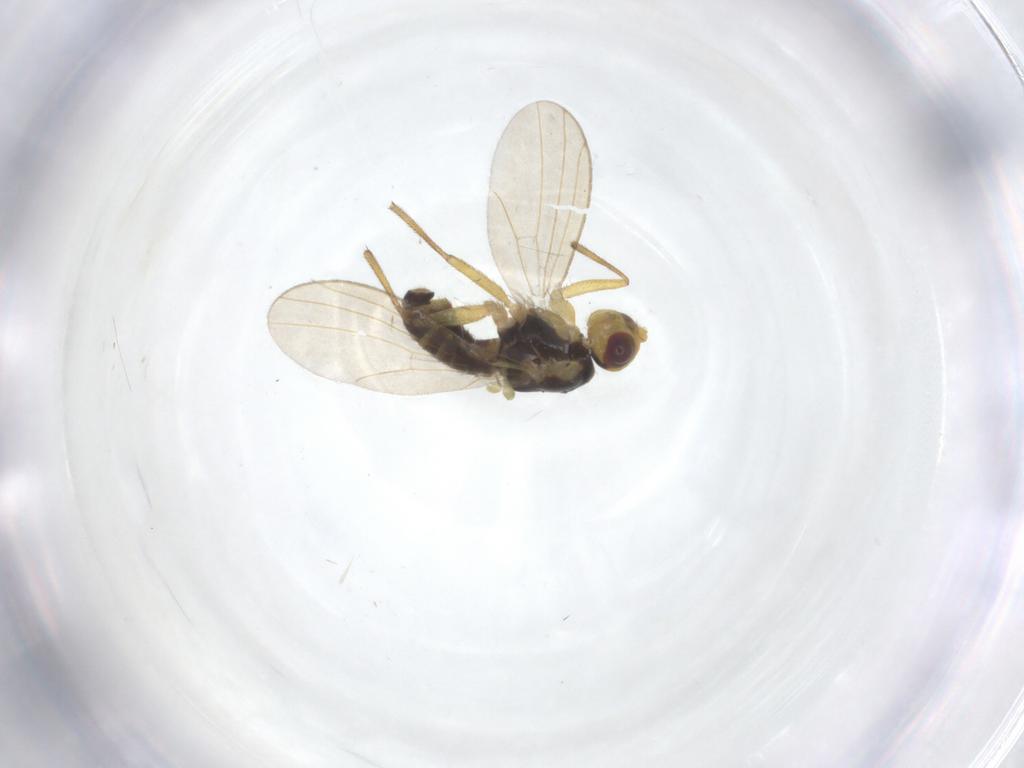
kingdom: Animalia
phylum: Arthropoda
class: Insecta
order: Diptera
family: Agromyzidae
